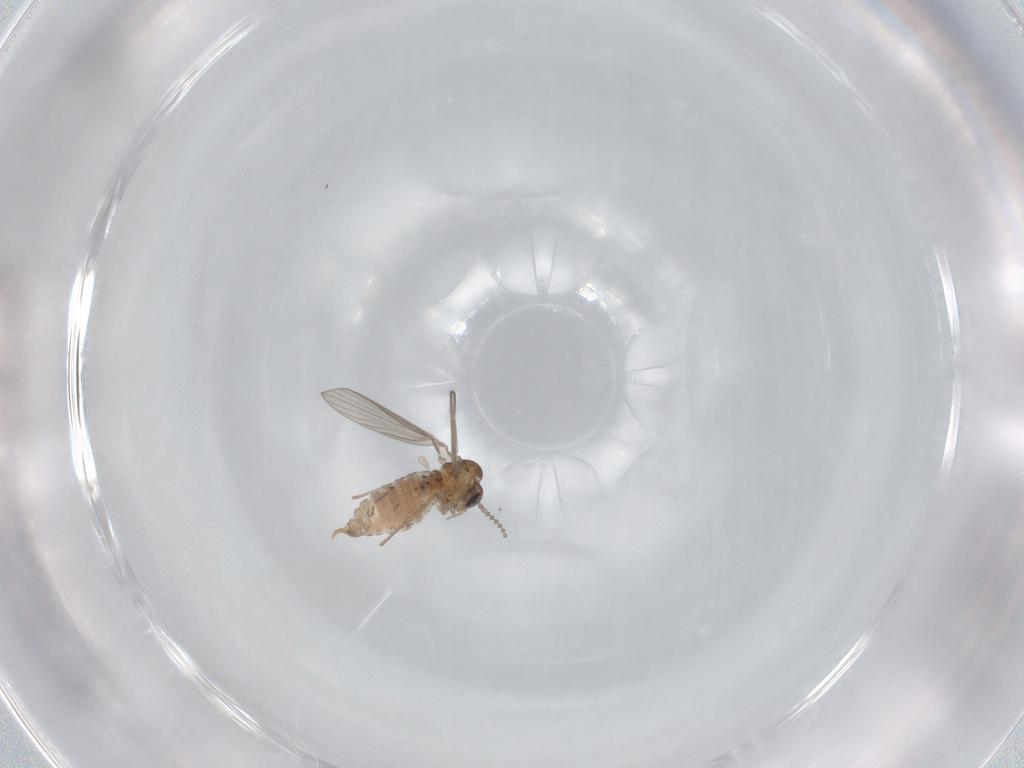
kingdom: Animalia
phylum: Arthropoda
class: Insecta
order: Diptera
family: Psychodidae
